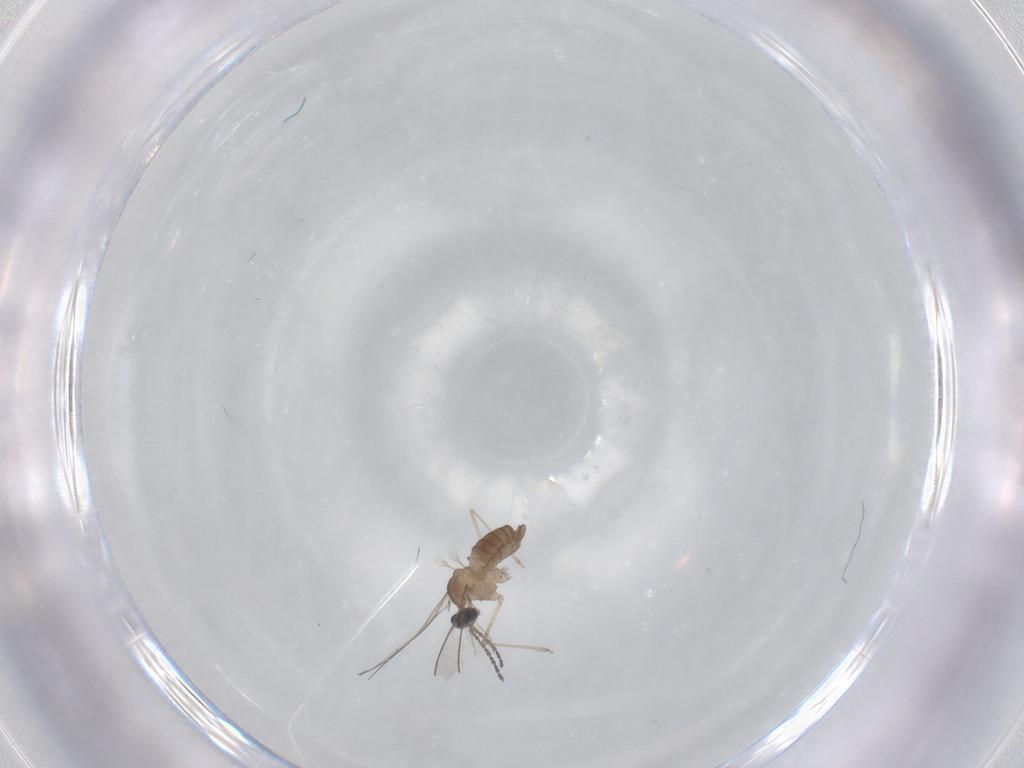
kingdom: Animalia
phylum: Arthropoda
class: Insecta
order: Diptera
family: Cecidomyiidae
